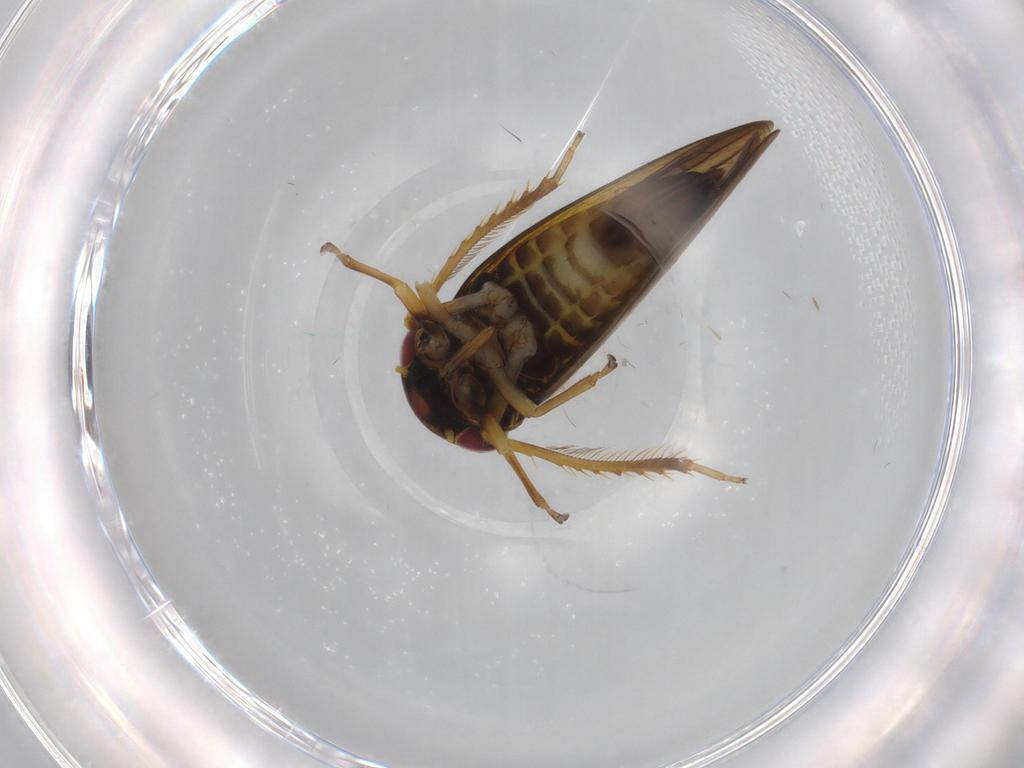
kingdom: Animalia
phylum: Arthropoda
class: Insecta
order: Hemiptera
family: Cicadellidae
